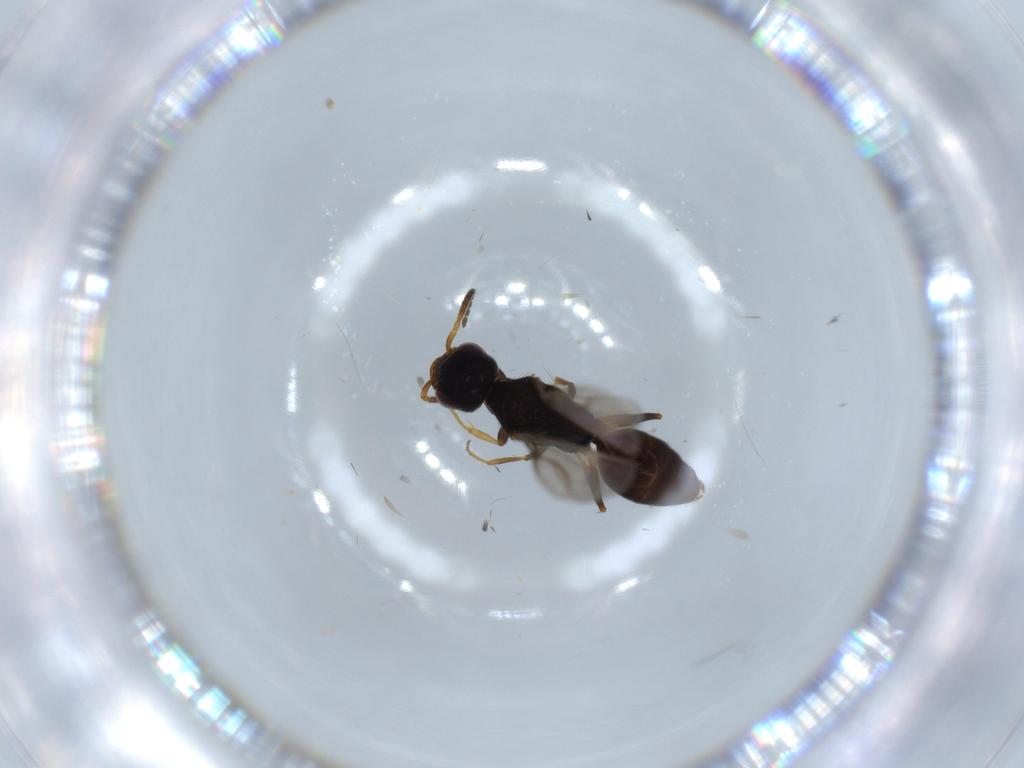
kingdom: Animalia
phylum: Arthropoda
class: Insecta
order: Hymenoptera
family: Bethylidae
